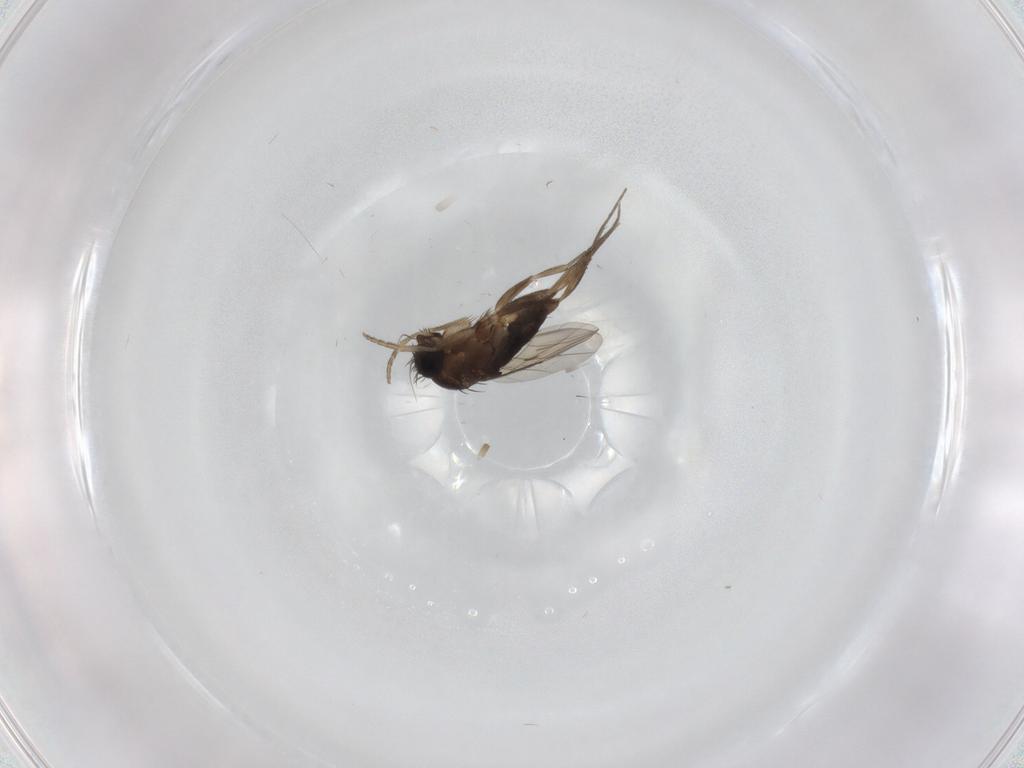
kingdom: Animalia
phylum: Arthropoda
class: Insecta
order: Diptera
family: Phoridae
